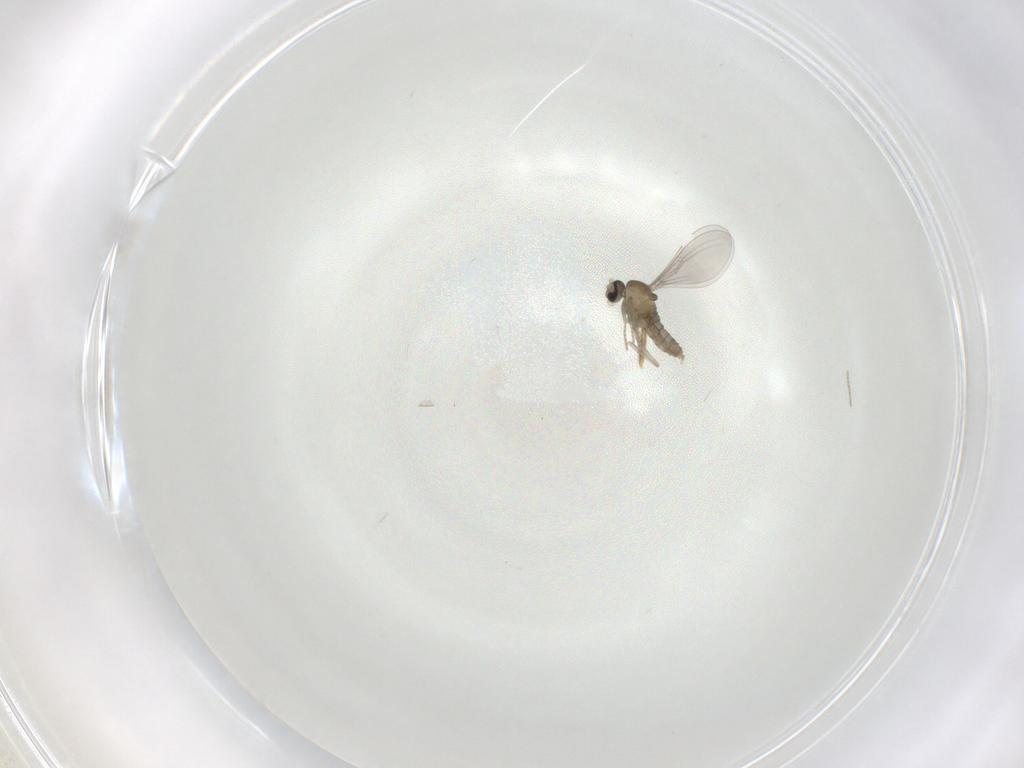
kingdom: Animalia
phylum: Arthropoda
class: Insecta
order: Diptera
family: Cecidomyiidae
